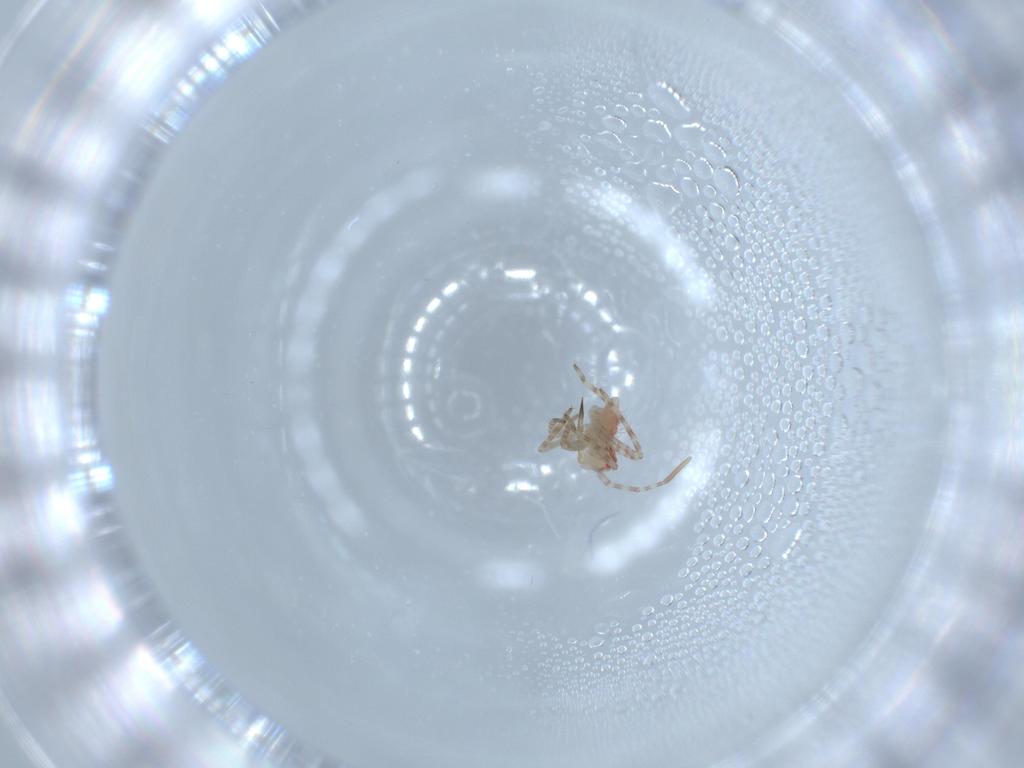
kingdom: Animalia
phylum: Arthropoda
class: Insecta
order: Hemiptera
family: Miridae
